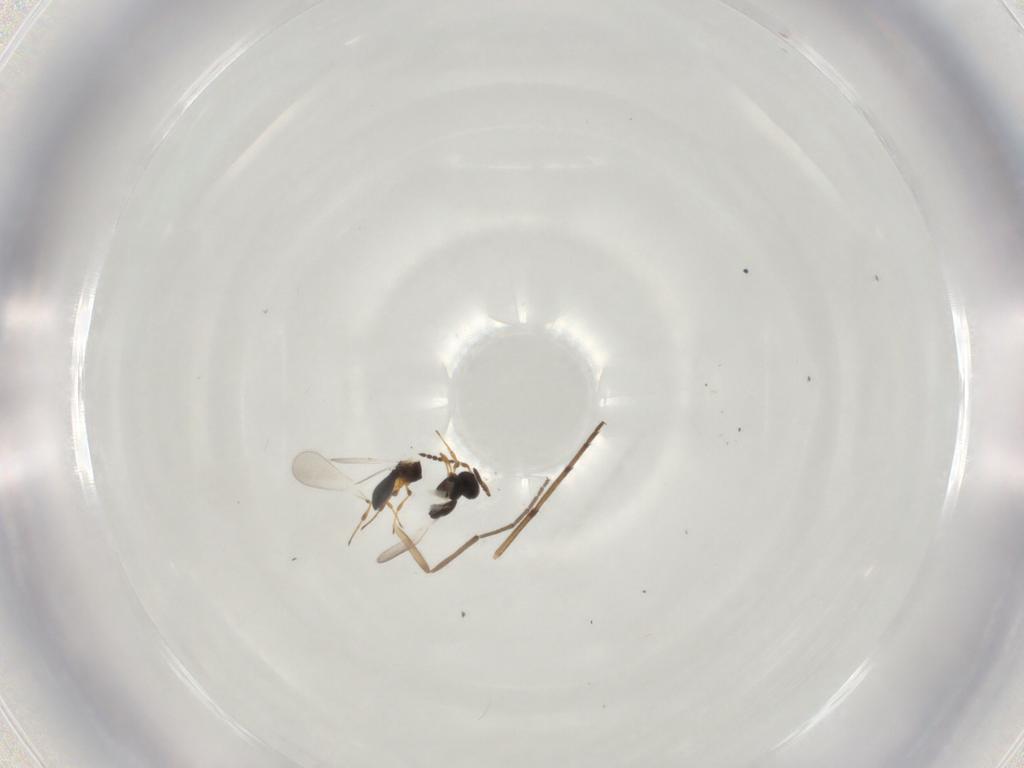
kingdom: Animalia
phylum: Arthropoda
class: Insecta
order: Hymenoptera
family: Platygastridae
